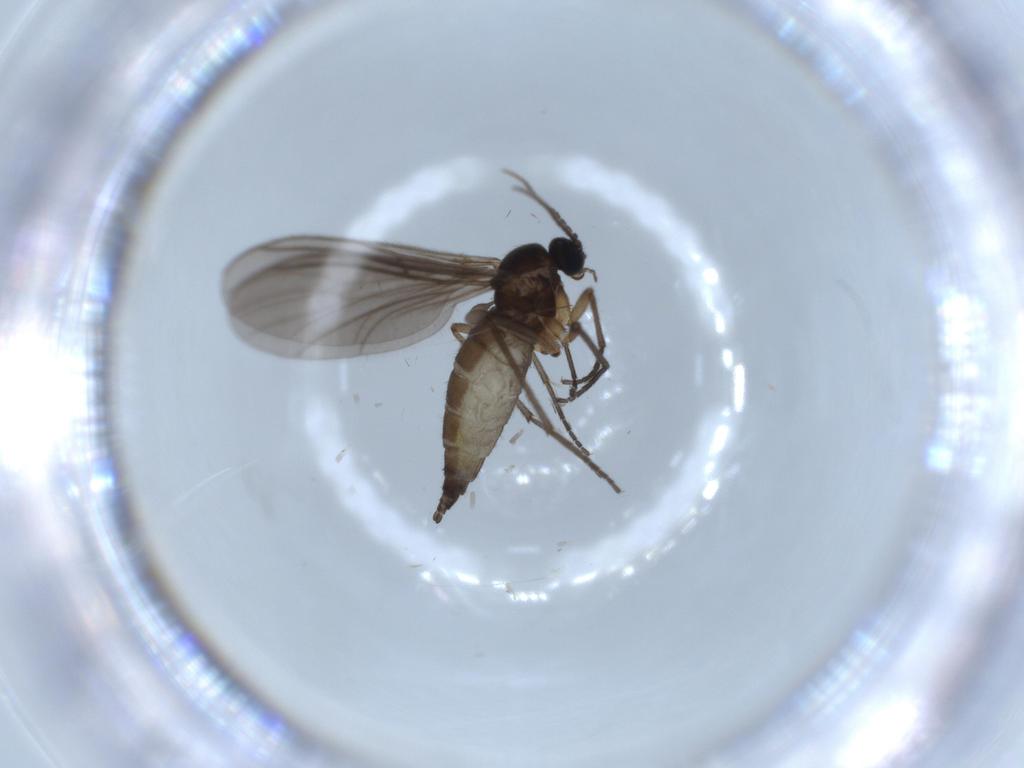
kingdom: Animalia
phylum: Arthropoda
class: Insecta
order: Diptera
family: Sciaridae
